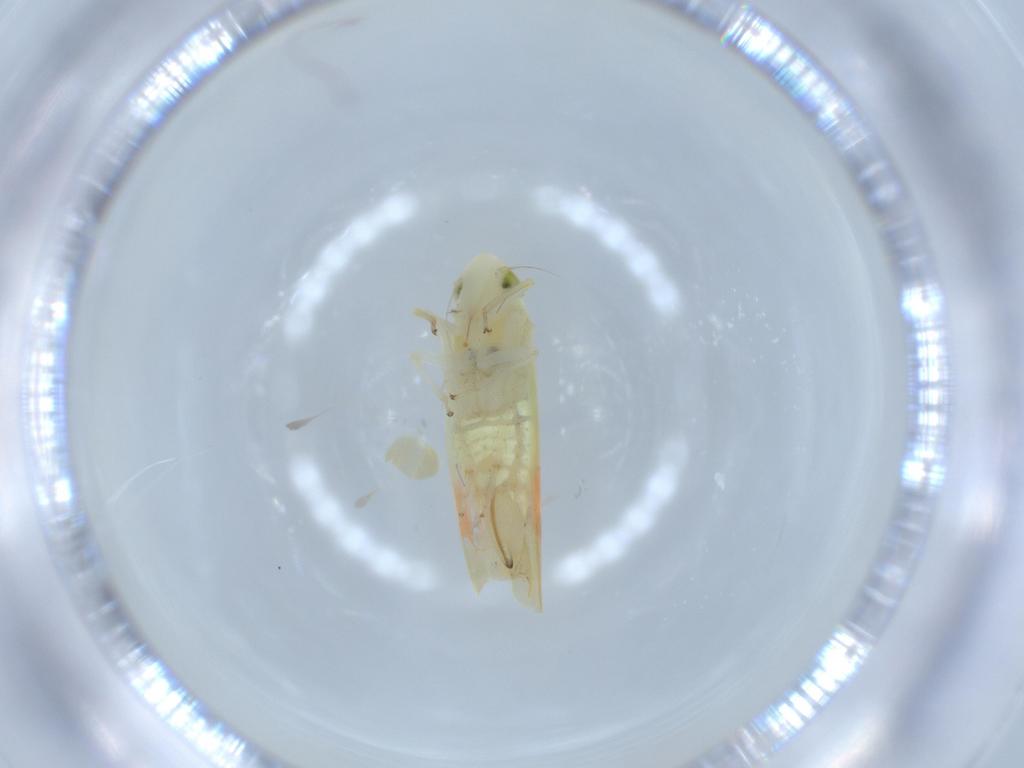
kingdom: Animalia
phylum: Arthropoda
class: Insecta
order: Hemiptera
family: Cicadellidae
